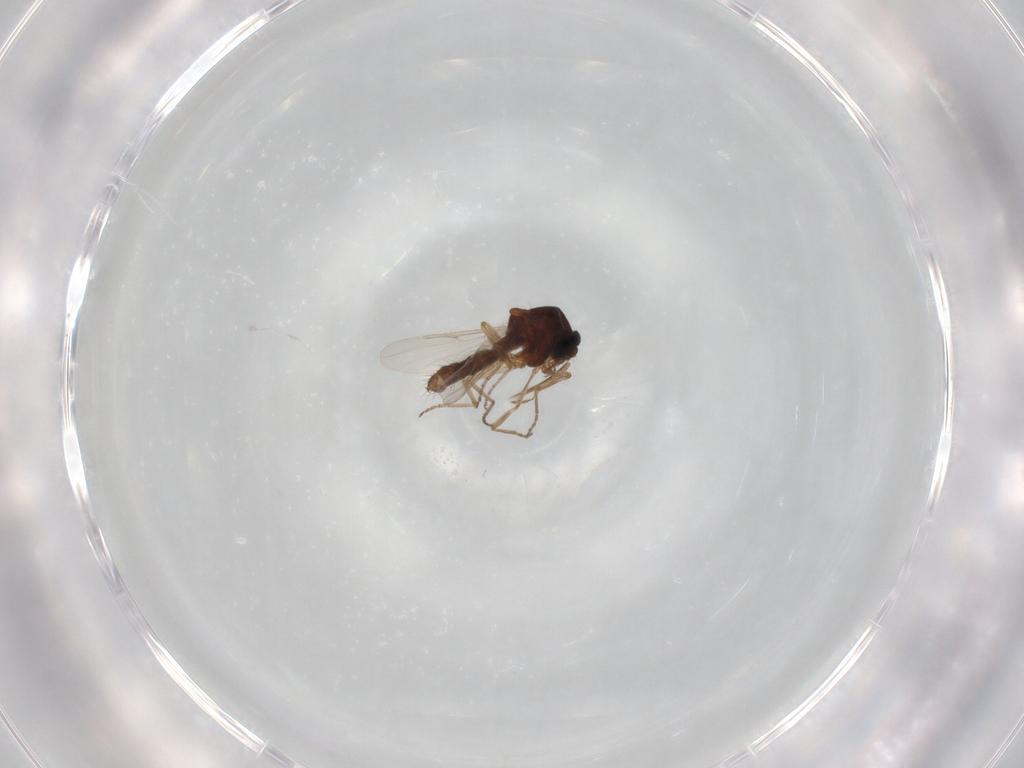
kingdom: Animalia
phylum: Arthropoda
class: Insecta
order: Diptera
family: Ceratopogonidae
